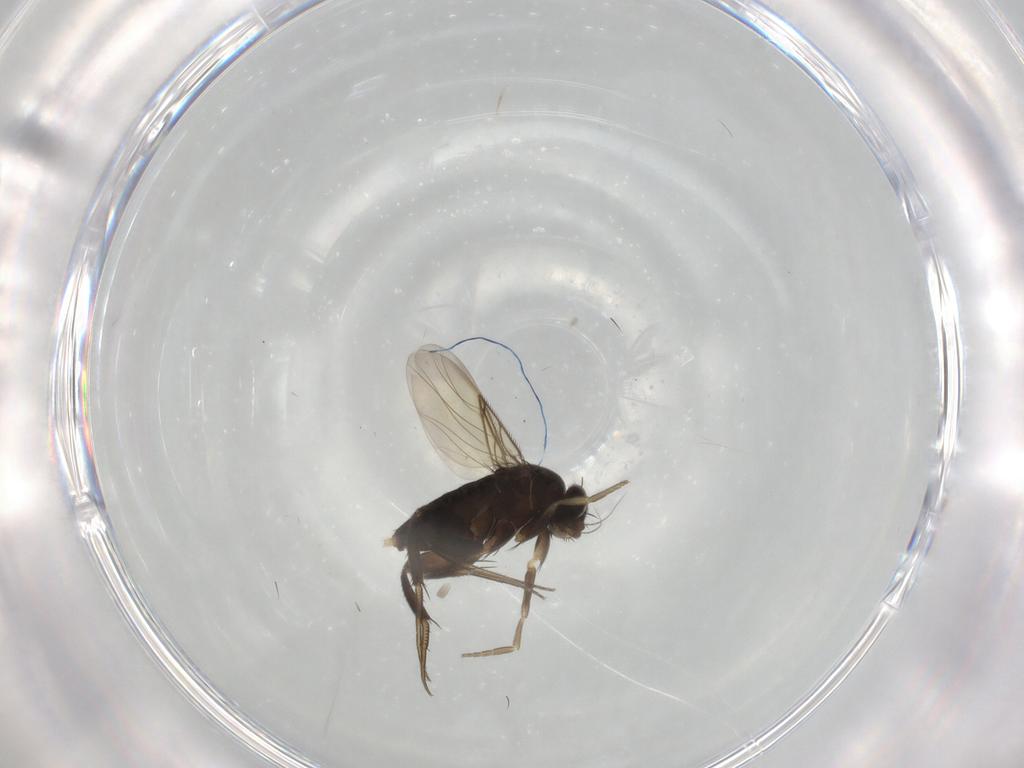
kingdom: Animalia
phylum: Arthropoda
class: Insecta
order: Diptera
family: Phoridae
